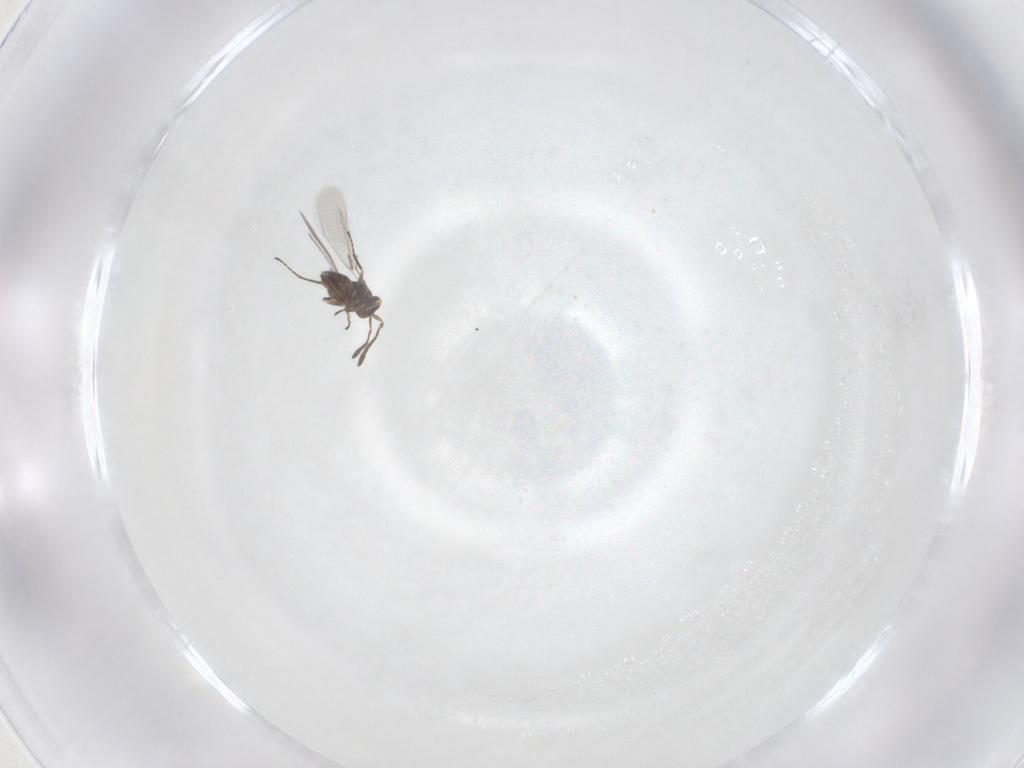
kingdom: Animalia
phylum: Arthropoda
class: Insecta
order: Hymenoptera
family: Mymaridae
